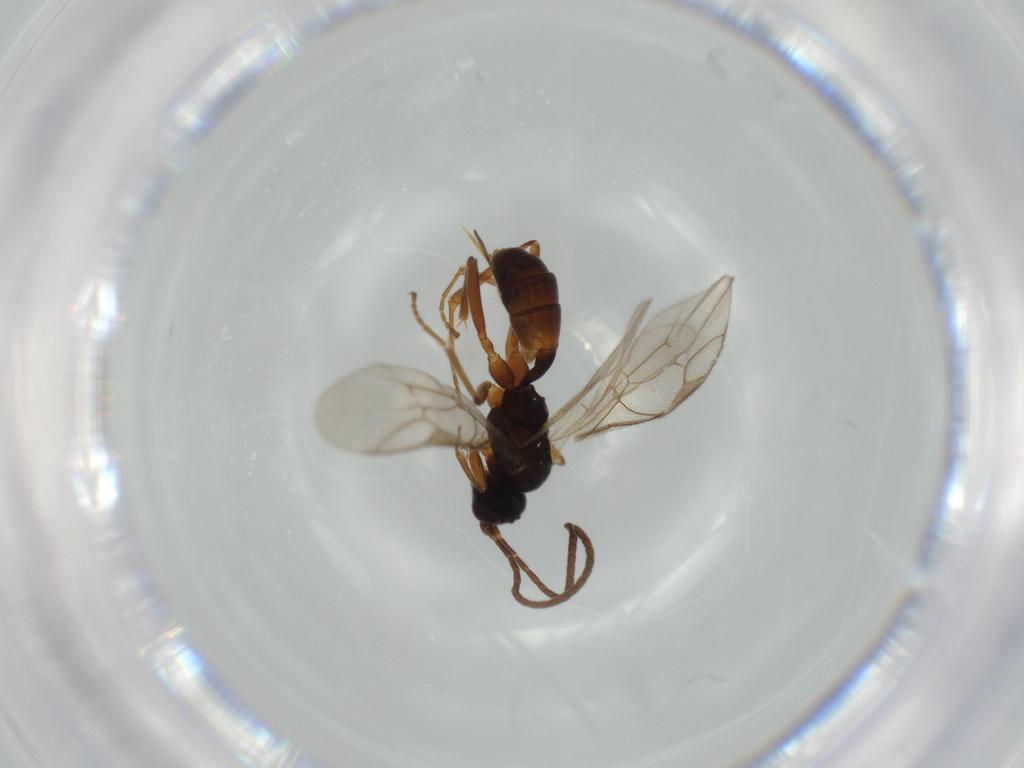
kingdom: Animalia
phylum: Arthropoda
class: Insecta
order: Hymenoptera
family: Ichneumonidae
